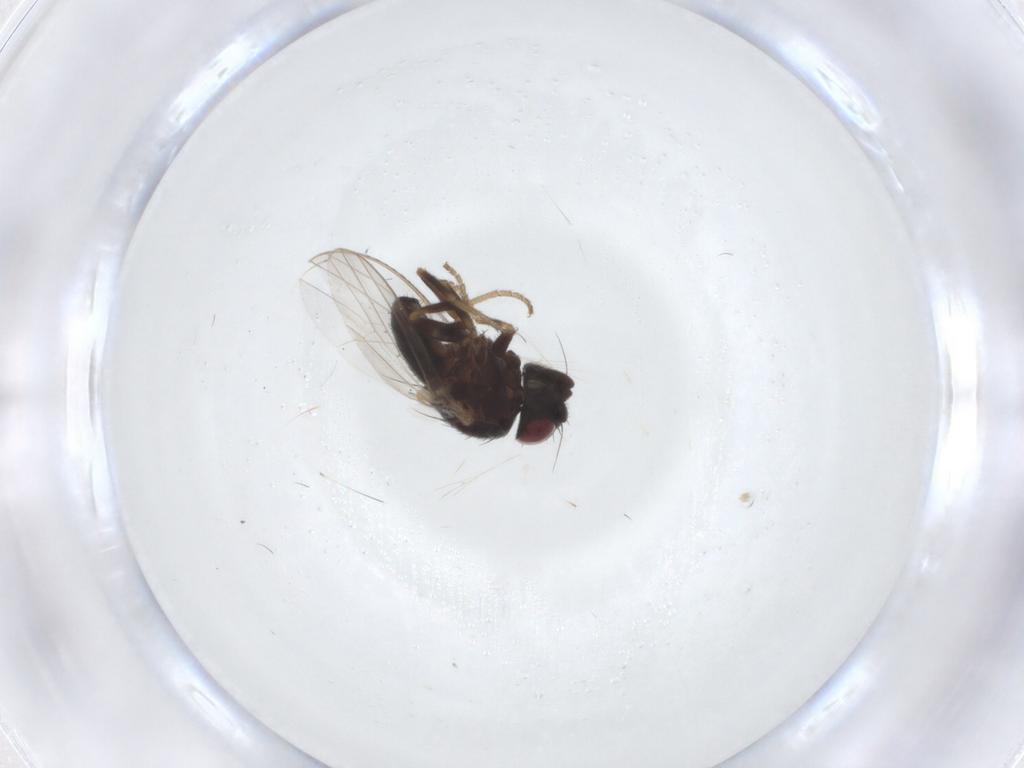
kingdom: Animalia
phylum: Arthropoda
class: Insecta
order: Diptera
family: Milichiidae
